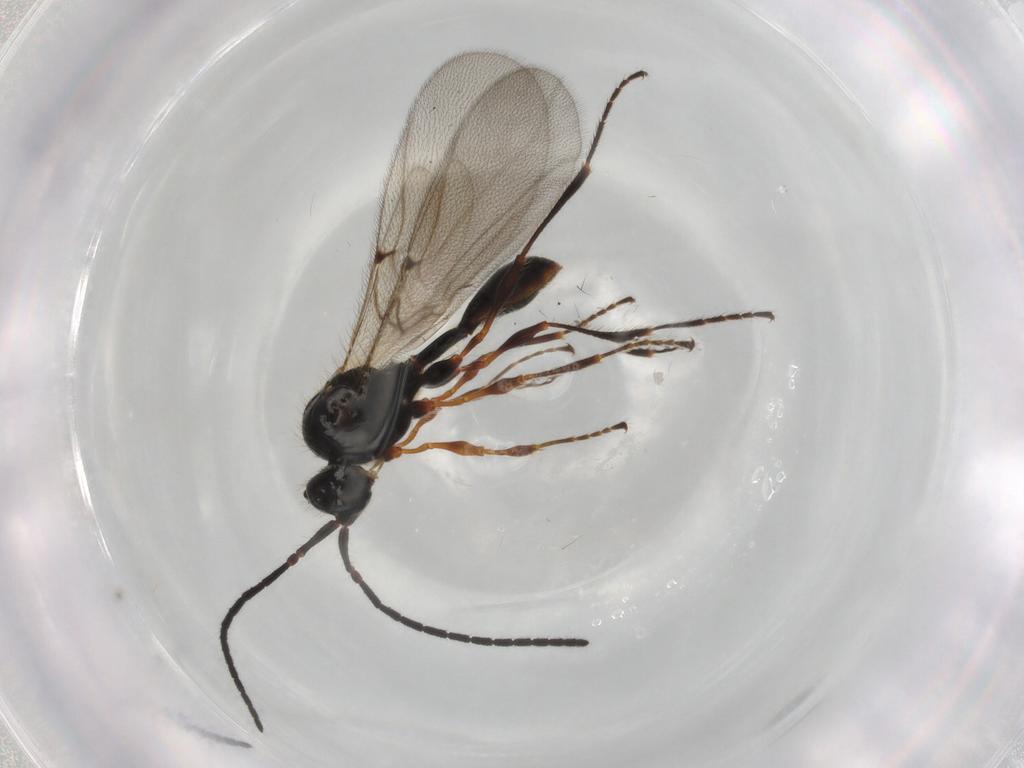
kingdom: Animalia
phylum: Arthropoda
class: Insecta
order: Hymenoptera
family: Diapriidae
